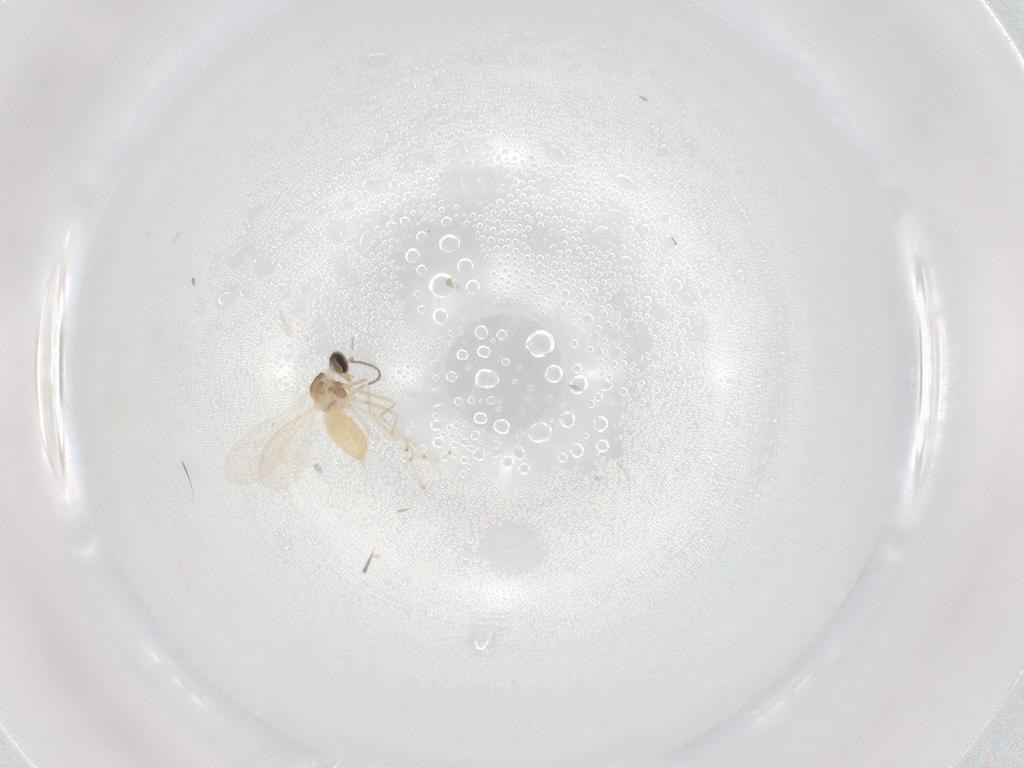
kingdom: Animalia
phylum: Arthropoda
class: Insecta
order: Diptera
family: Cecidomyiidae
